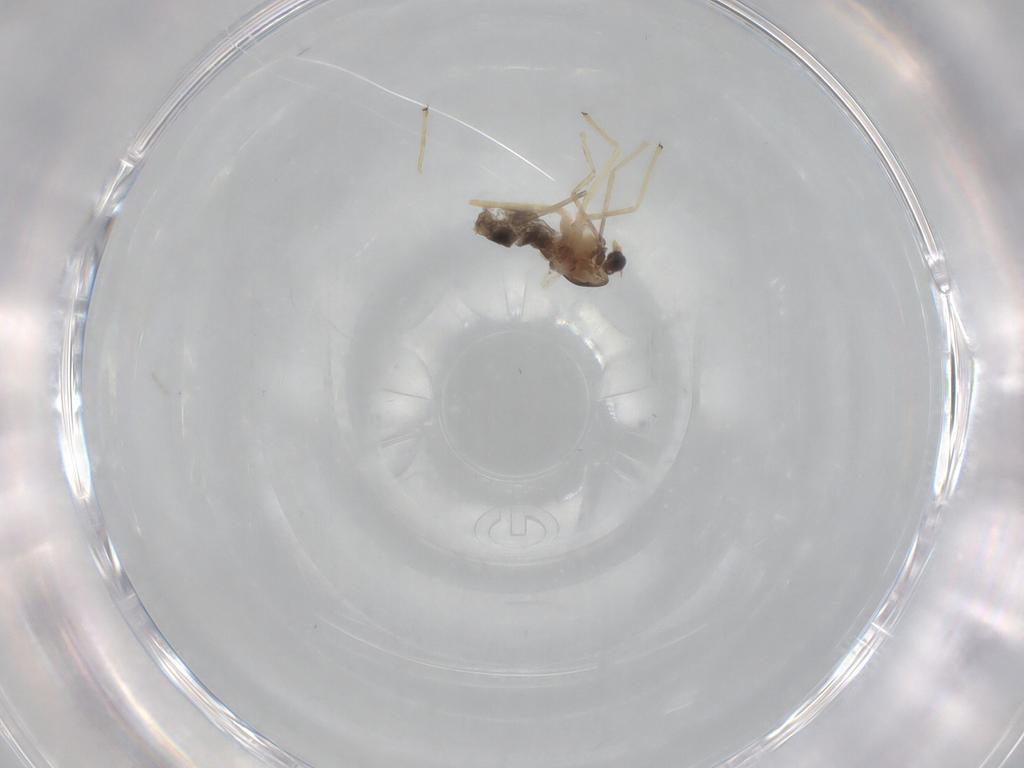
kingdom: Animalia
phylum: Arthropoda
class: Insecta
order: Diptera
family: Chironomidae
